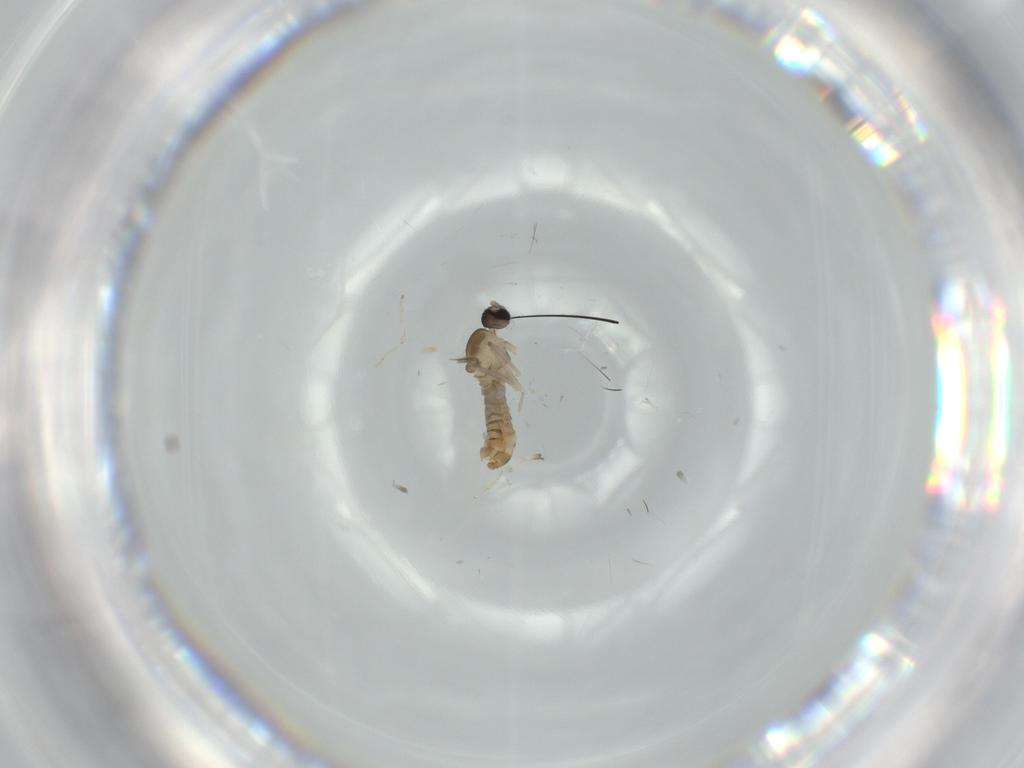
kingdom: Animalia
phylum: Arthropoda
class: Insecta
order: Diptera
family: Cecidomyiidae
